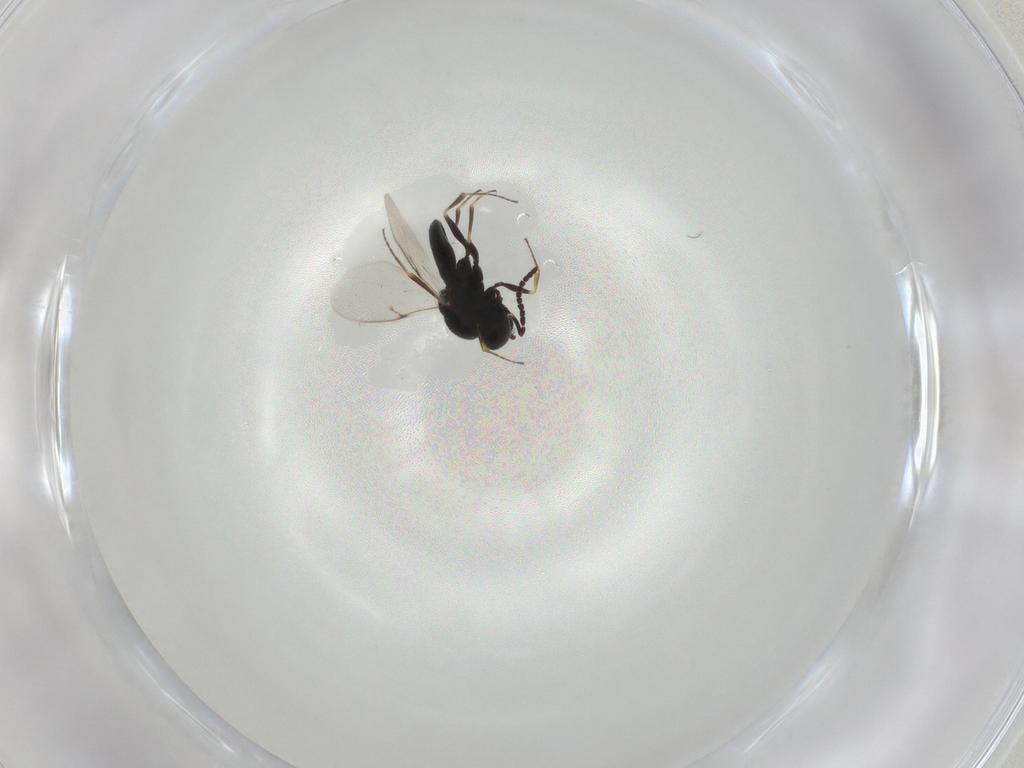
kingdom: Animalia
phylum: Arthropoda
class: Insecta
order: Hymenoptera
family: Scelionidae
